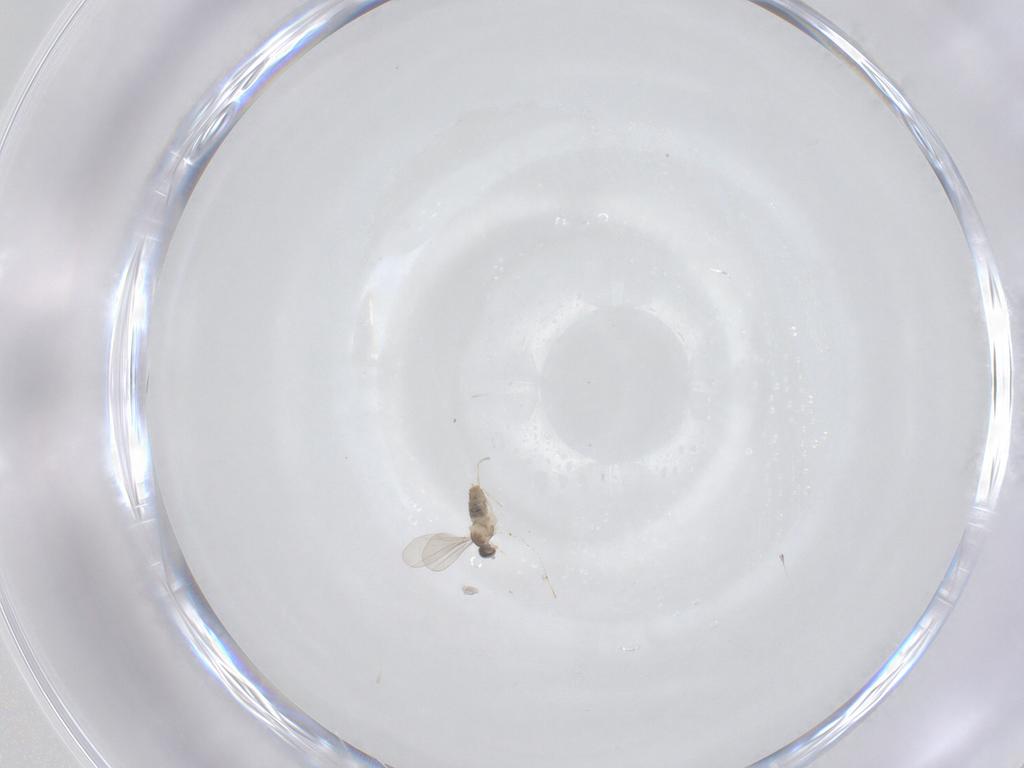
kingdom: Animalia
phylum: Arthropoda
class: Insecta
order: Diptera
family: Cecidomyiidae
